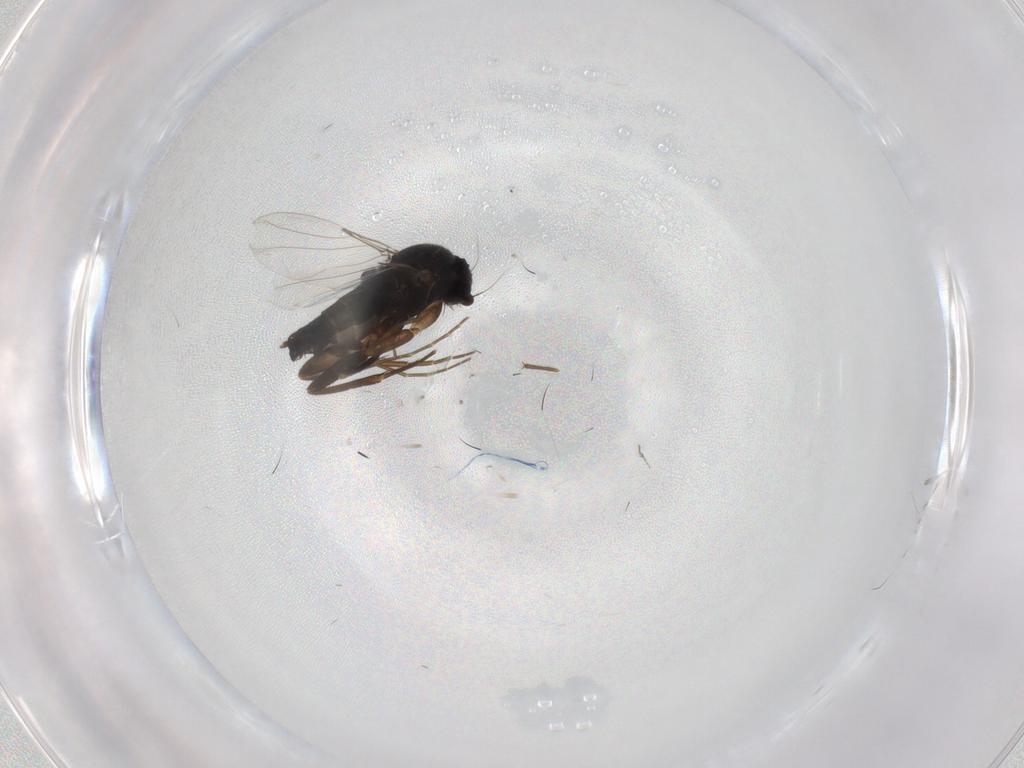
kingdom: Animalia
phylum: Arthropoda
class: Insecta
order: Diptera
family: Phoridae
